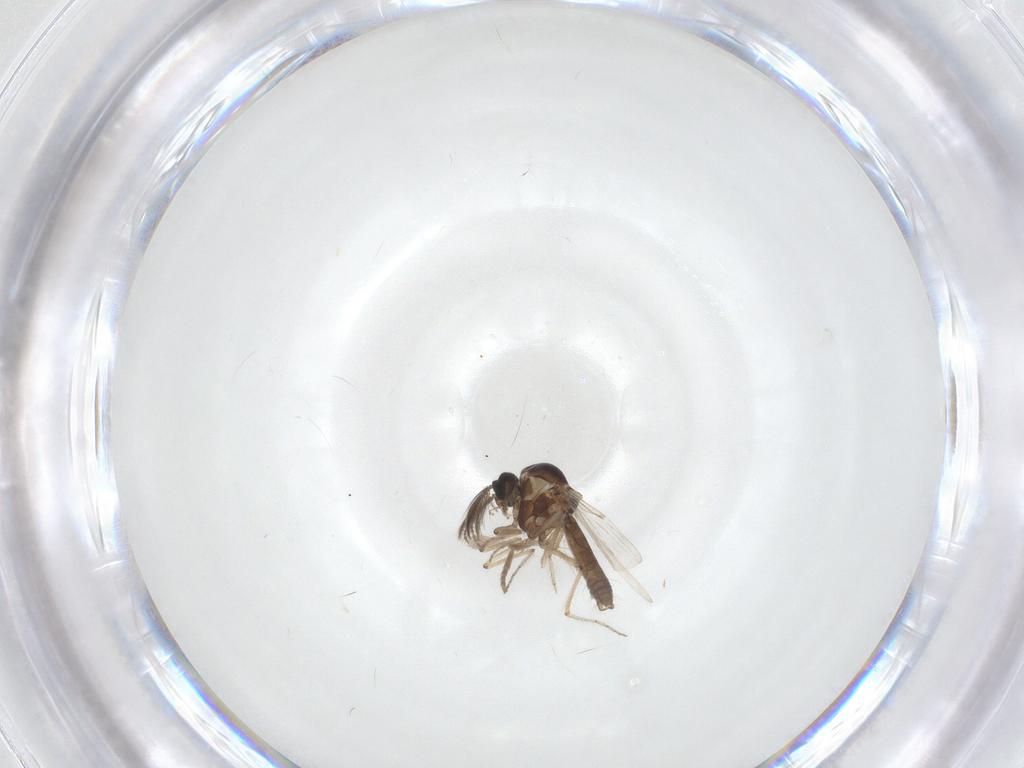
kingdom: Animalia
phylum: Arthropoda
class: Insecta
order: Diptera
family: Ceratopogonidae
